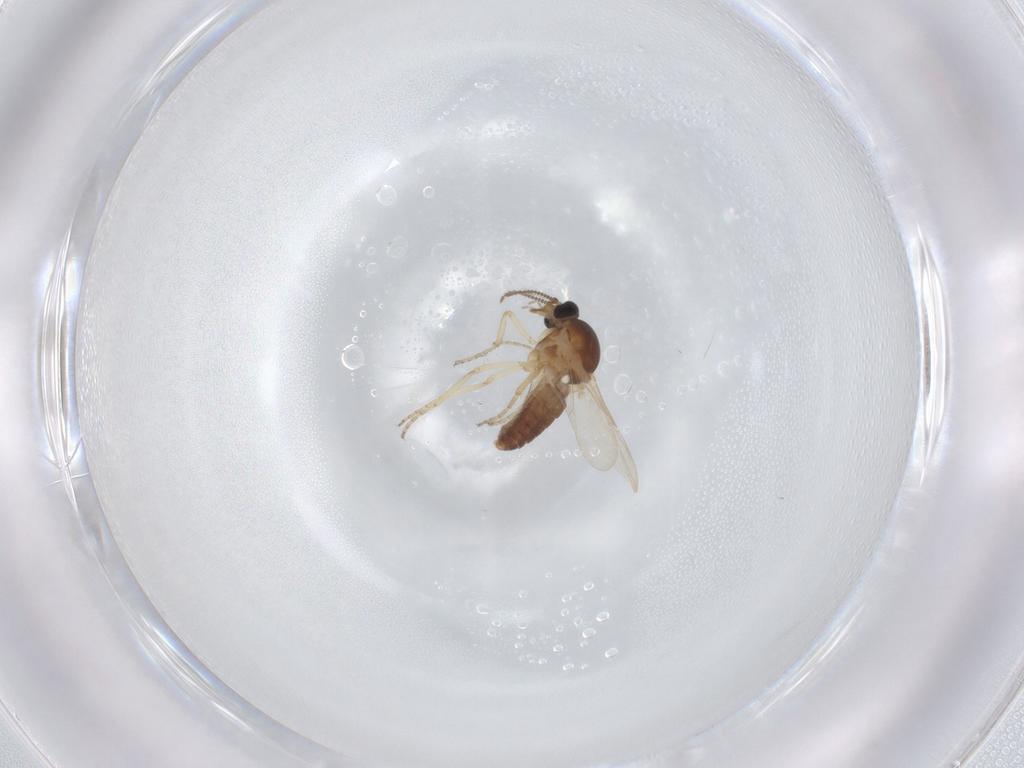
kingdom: Animalia
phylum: Arthropoda
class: Insecta
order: Diptera
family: Ceratopogonidae
